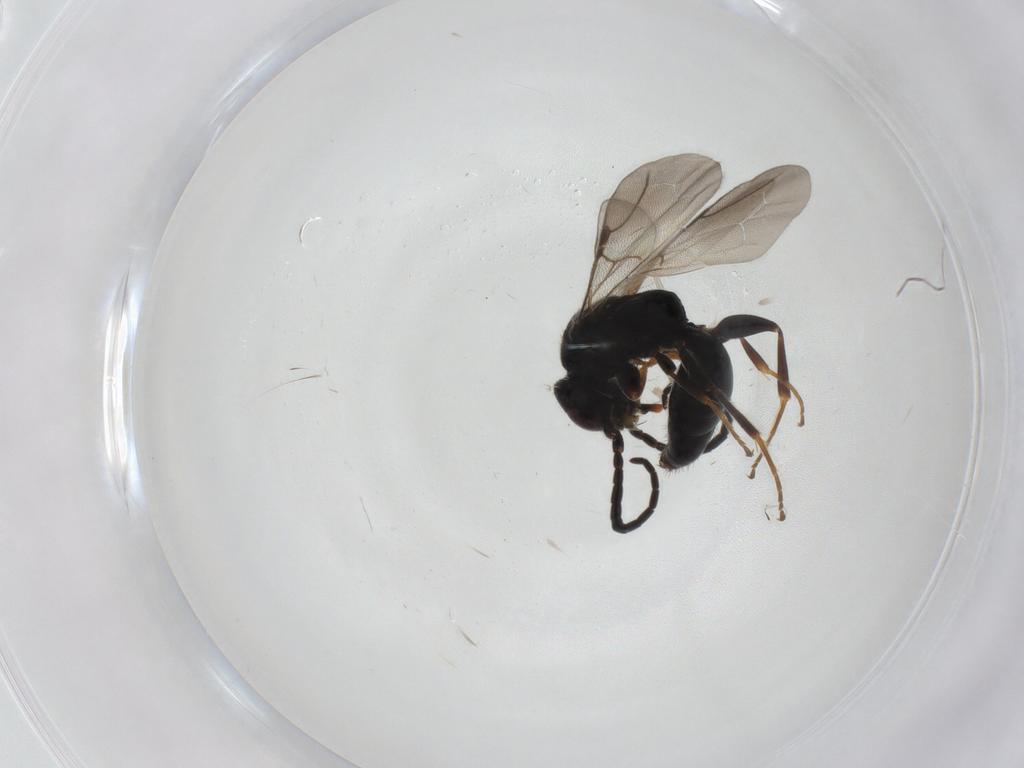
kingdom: Animalia
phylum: Arthropoda
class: Insecta
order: Hymenoptera
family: Bethylidae
